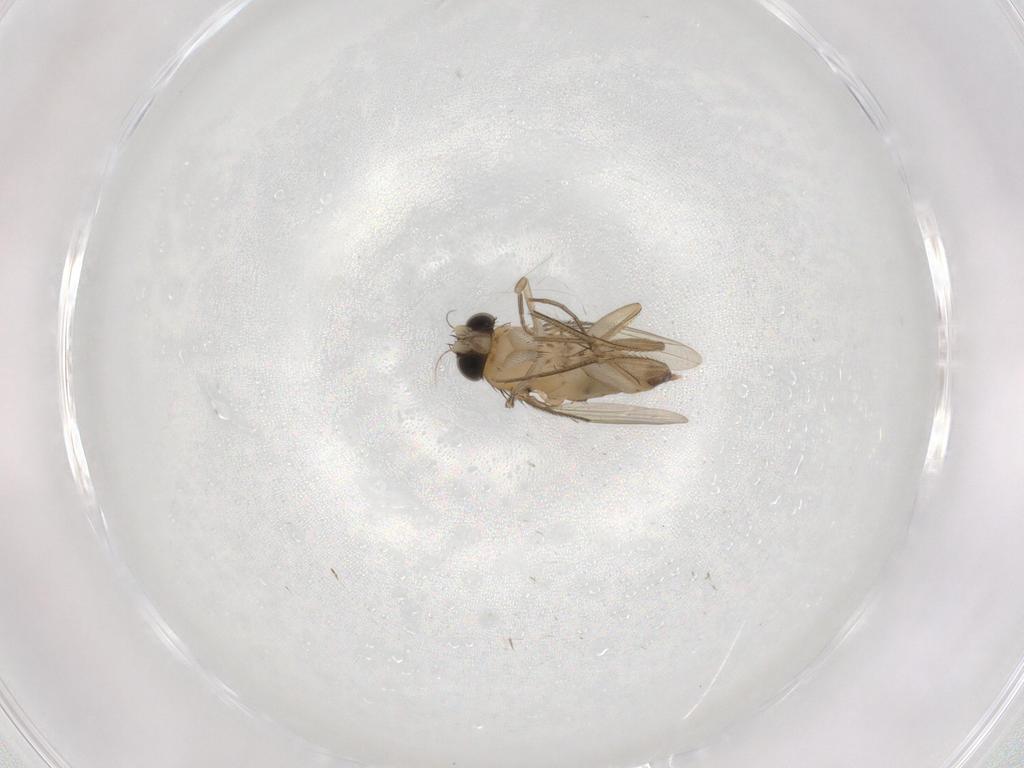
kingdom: Animalia
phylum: Arthropoda
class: Insecta
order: Diptera
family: Phoridae
